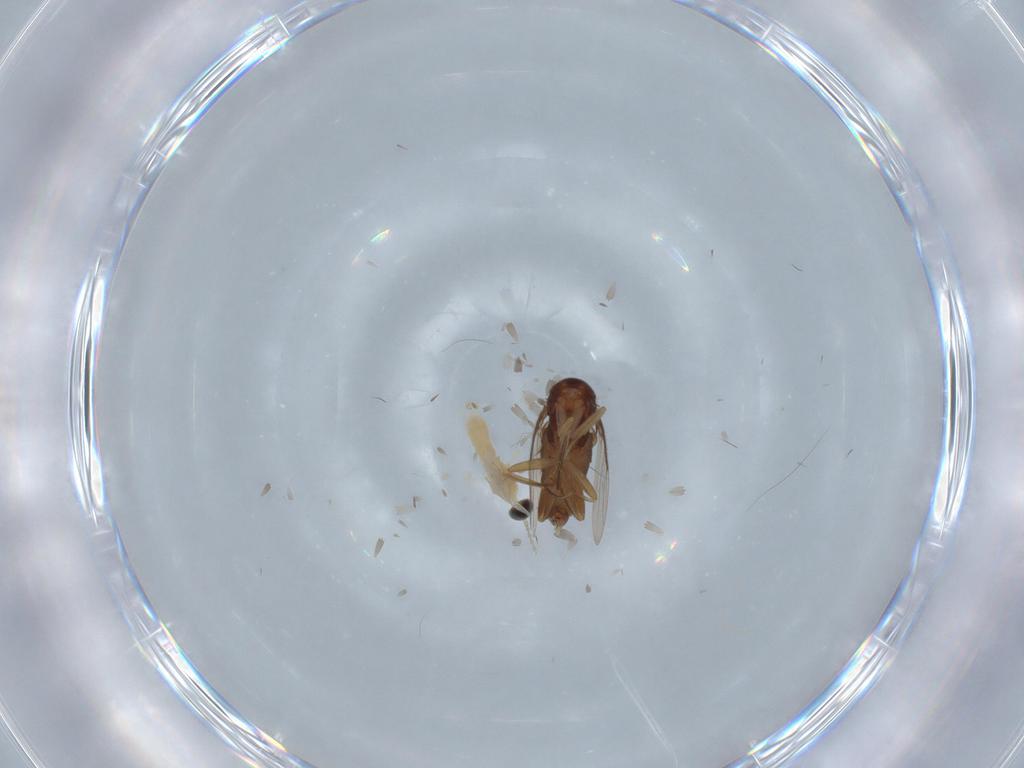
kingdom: Animalia
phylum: Arthropoda
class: Insecta
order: Diptera
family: Cecidomyiidae
